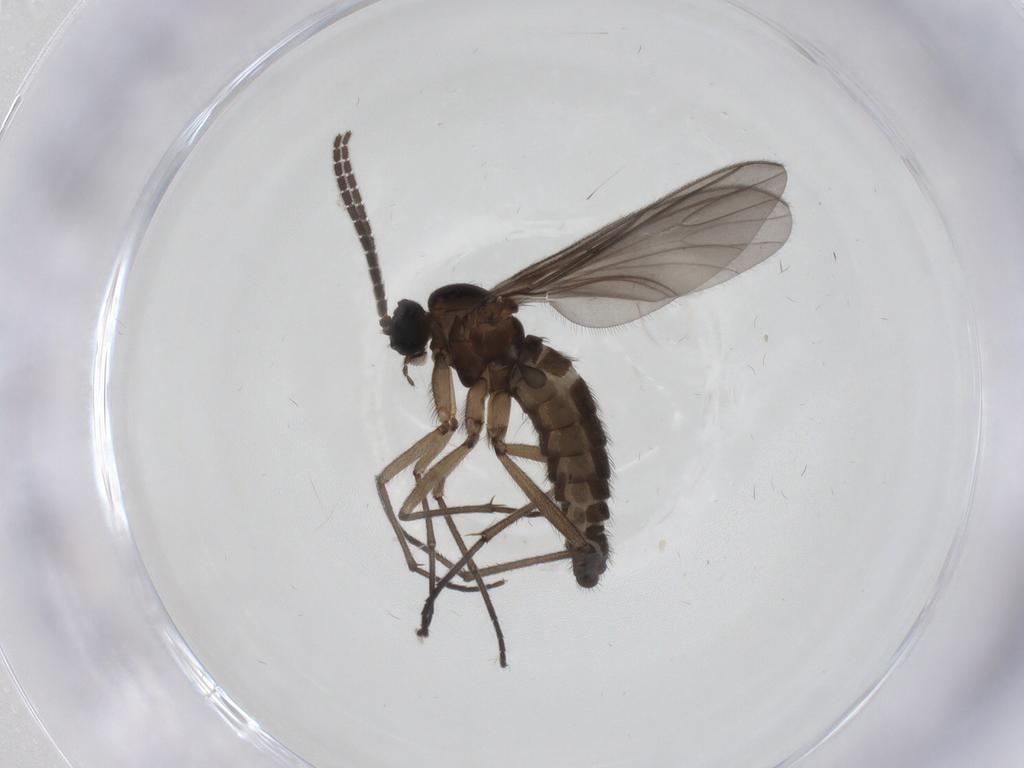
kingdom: Animalia
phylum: Arthropoda
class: Insecta
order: Diptera
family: Sciaridae
